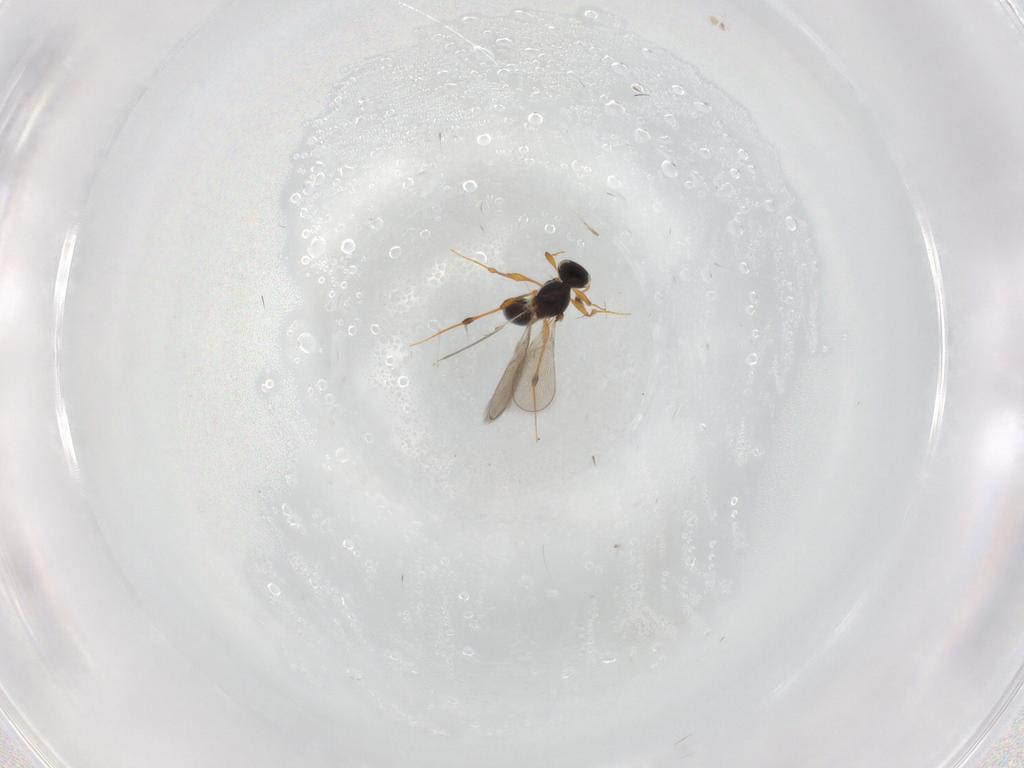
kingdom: Animalia
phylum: Arthropoda
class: Insecta
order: Hymenoptera
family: Platygastridae
